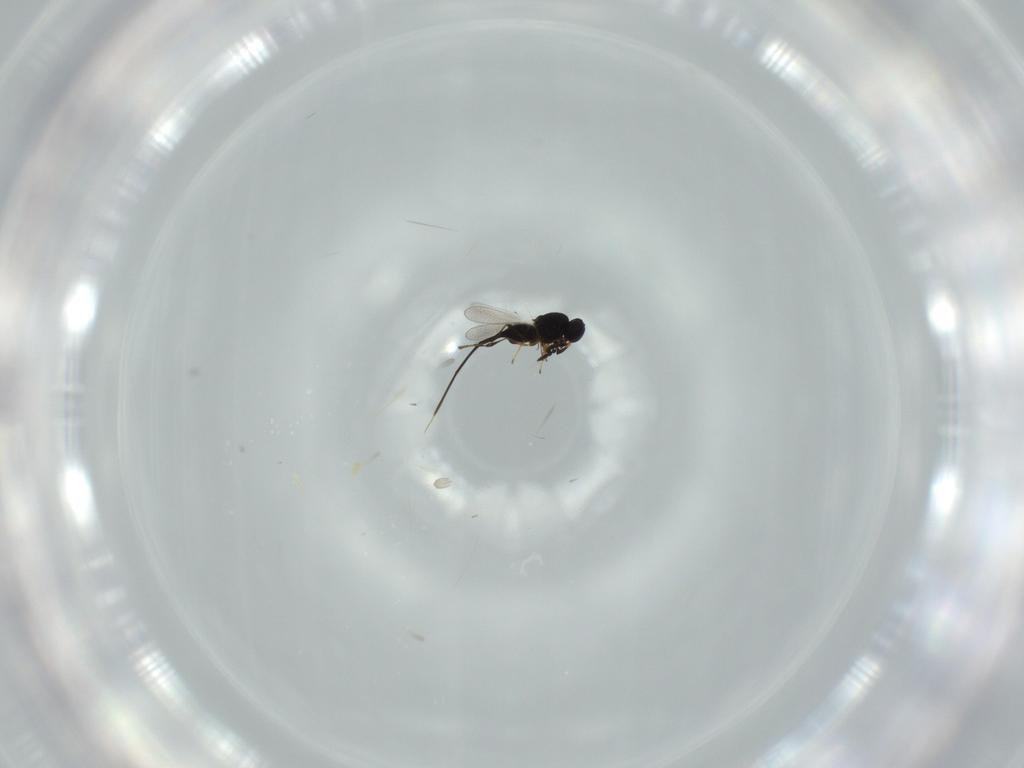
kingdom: Animalia
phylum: Arthropoda
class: Insecta
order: Hymenoptera
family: Platygastridae
